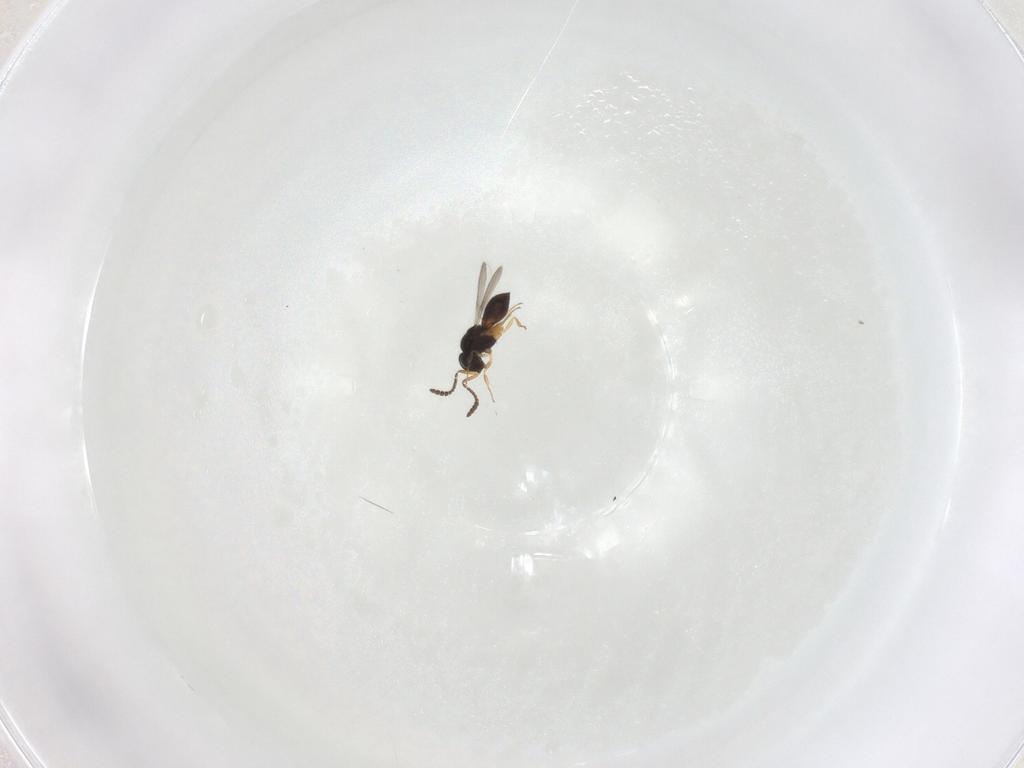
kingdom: Animalia
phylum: Arthropoda
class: Insecta
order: Hymenoptera
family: Scelionidae
